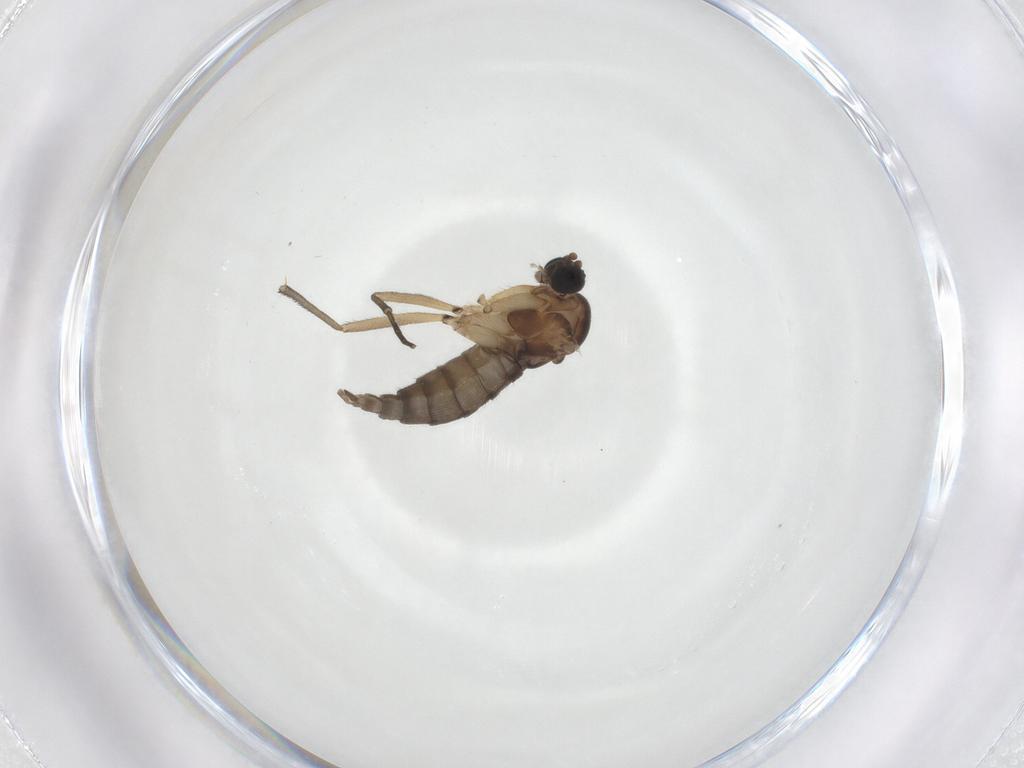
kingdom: Animalia
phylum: Arthropoda
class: Insecta
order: Diptera
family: Sciaridae
